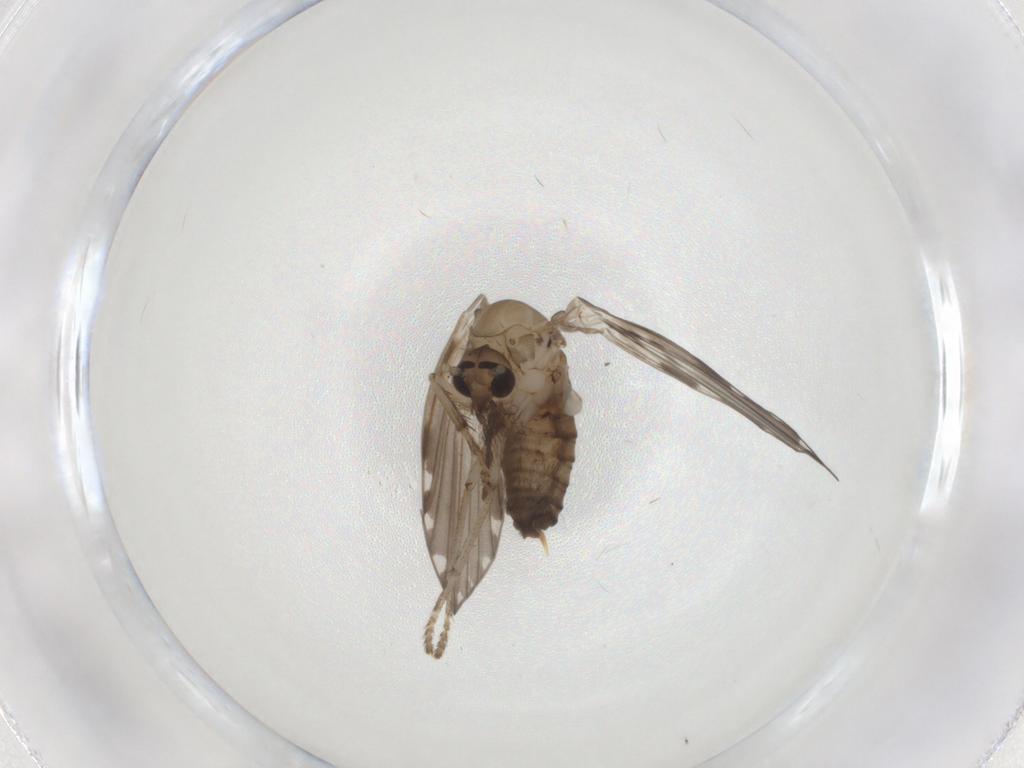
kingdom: Animalia
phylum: Arthropoda
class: Insecta
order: Diptera
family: Psychodidae
